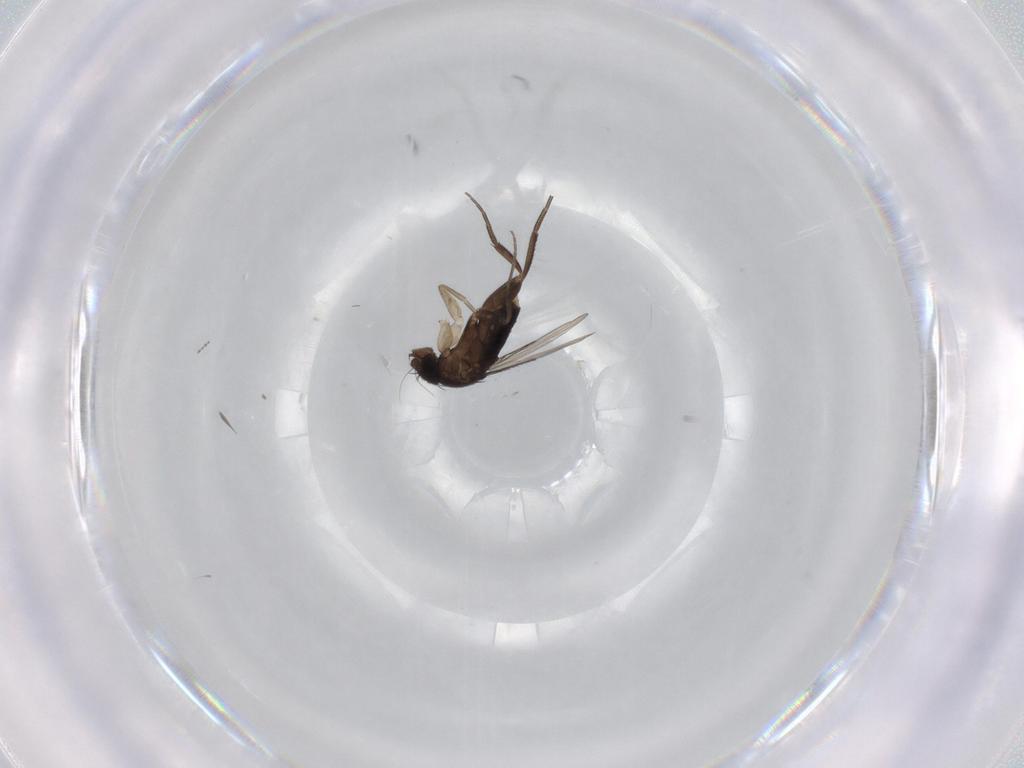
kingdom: Animalia
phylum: Arthropoda
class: Insecta
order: Diptera
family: Phoridae
